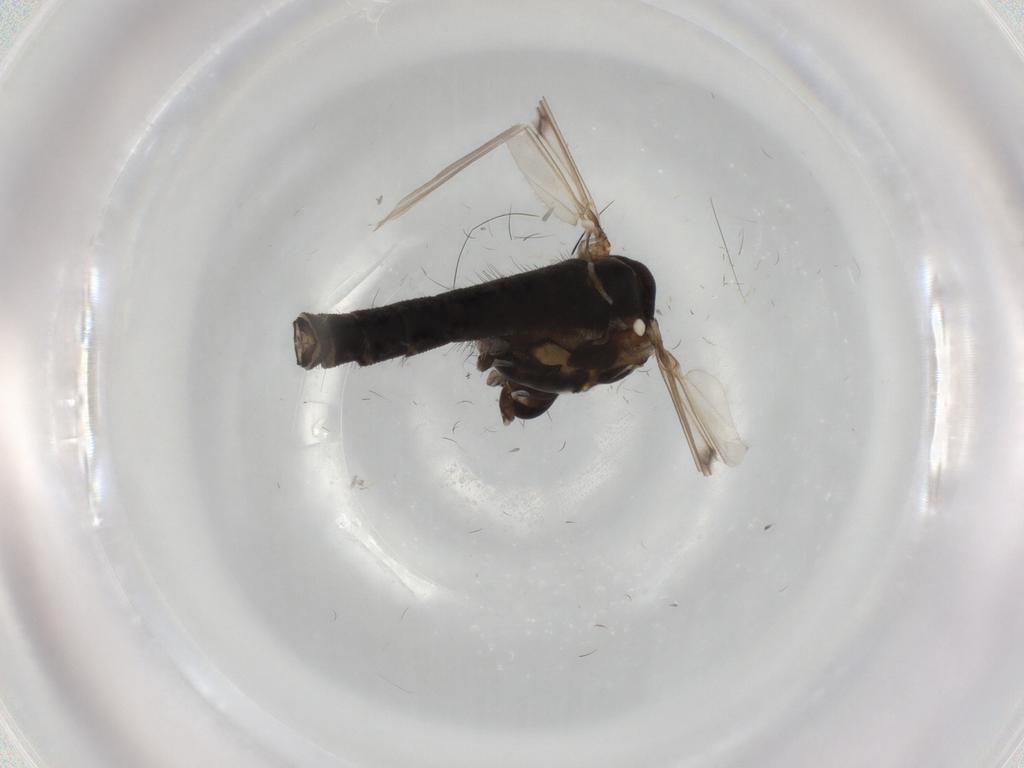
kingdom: Animalia
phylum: Arthropoda
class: Insecta
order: Diptera
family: Chironomidae
